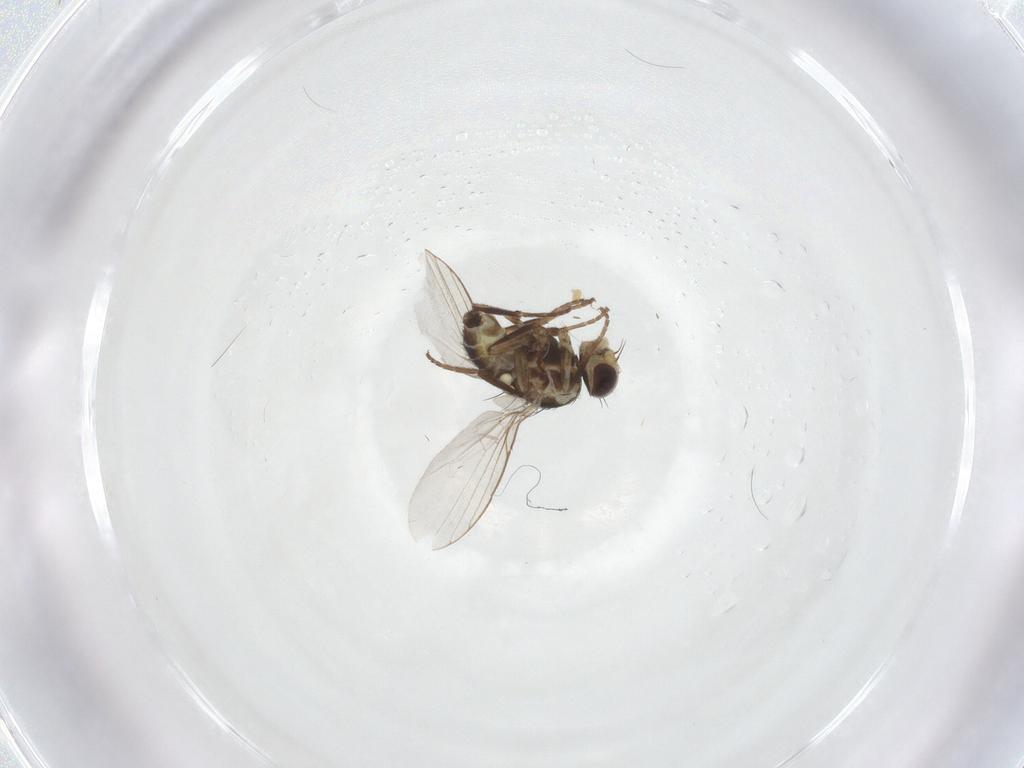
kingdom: Animalia
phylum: Arthropoda
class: Insecta
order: Diptera
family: Agromyzidae
